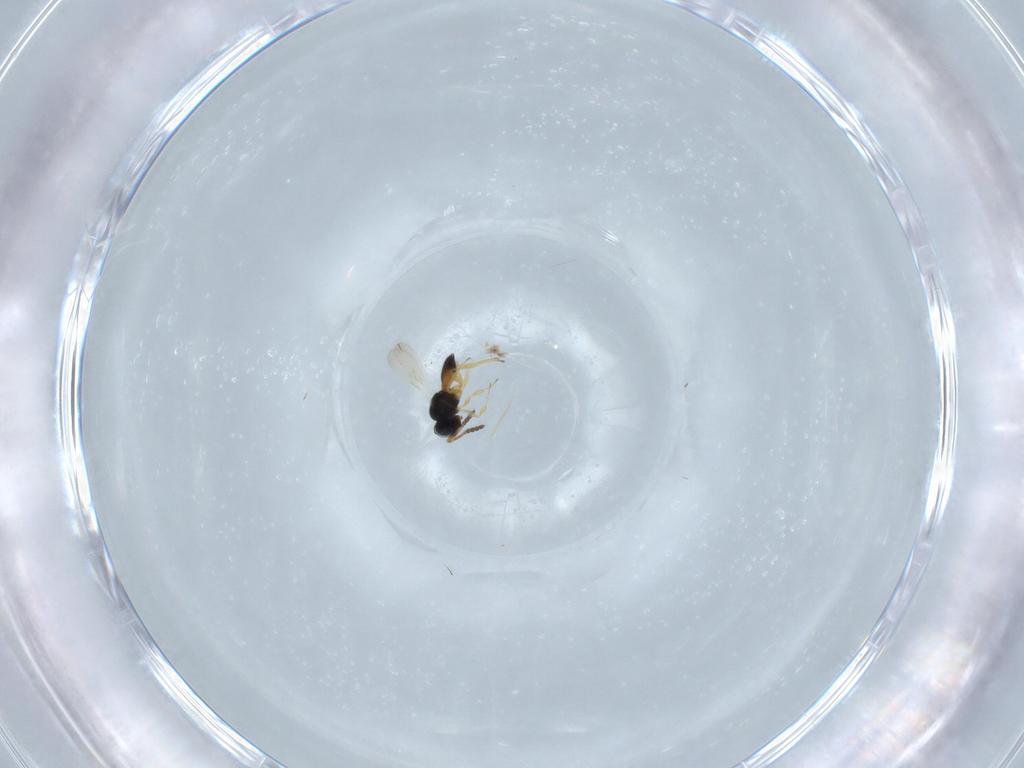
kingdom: Animalia
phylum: Arthropoda
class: Insecta
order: Hymenoptera
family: Scelionidae
